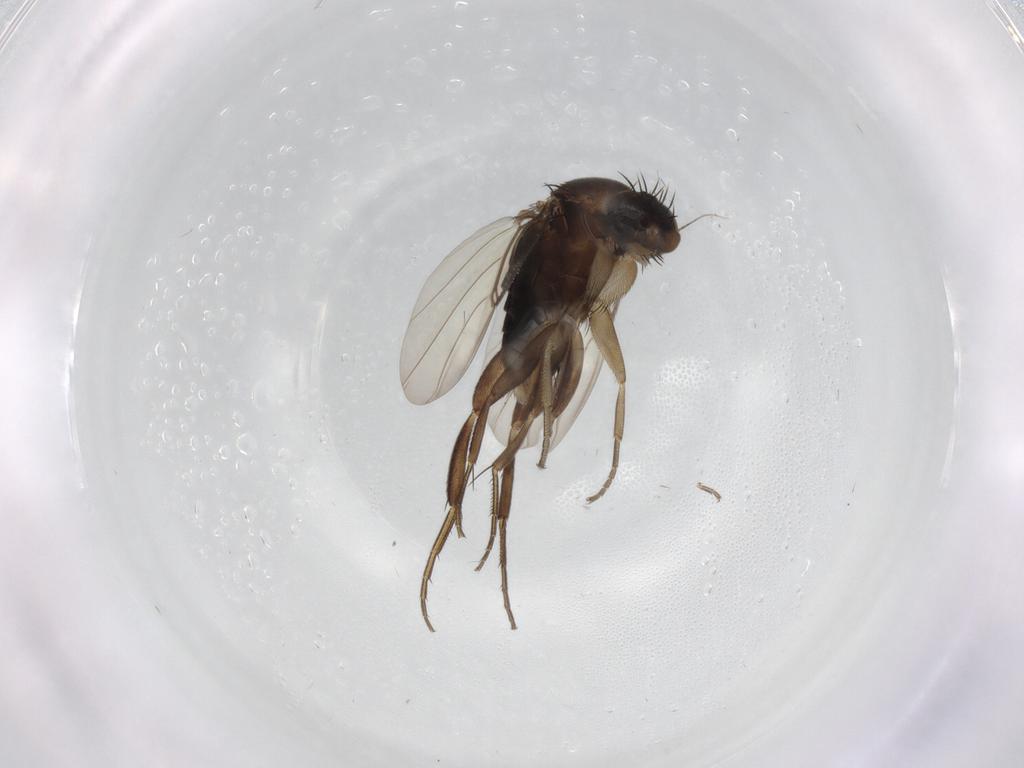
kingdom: Animalia
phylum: Arthropoda
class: Insecta
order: Diptera
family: Phoridae
